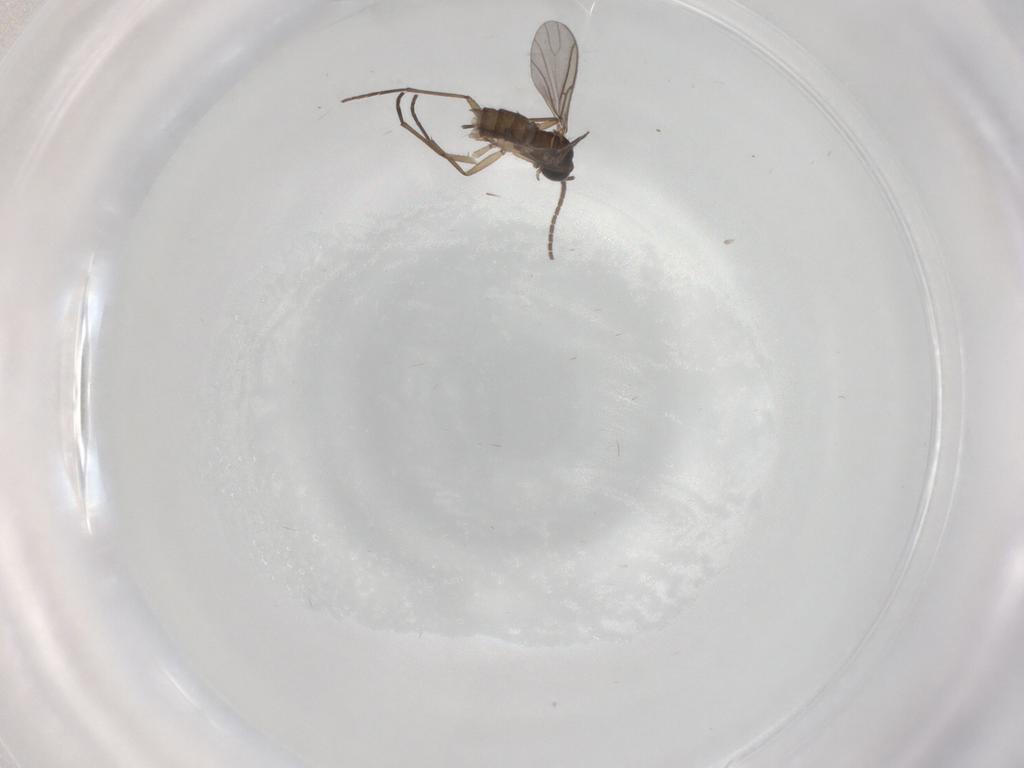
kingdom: Animalia
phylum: Arthropoda
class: Insecta
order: Diptera
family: Sciaridae
